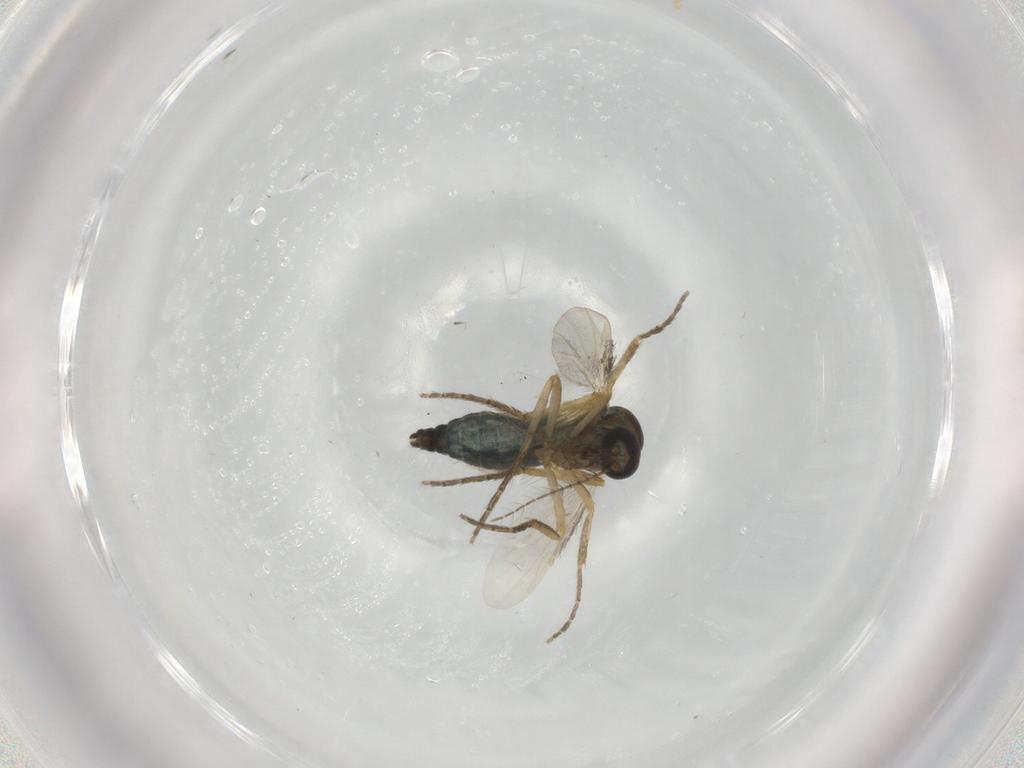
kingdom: Animalia
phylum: Arthropoda
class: Insecta
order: Diptera
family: Ceratopogonidae
